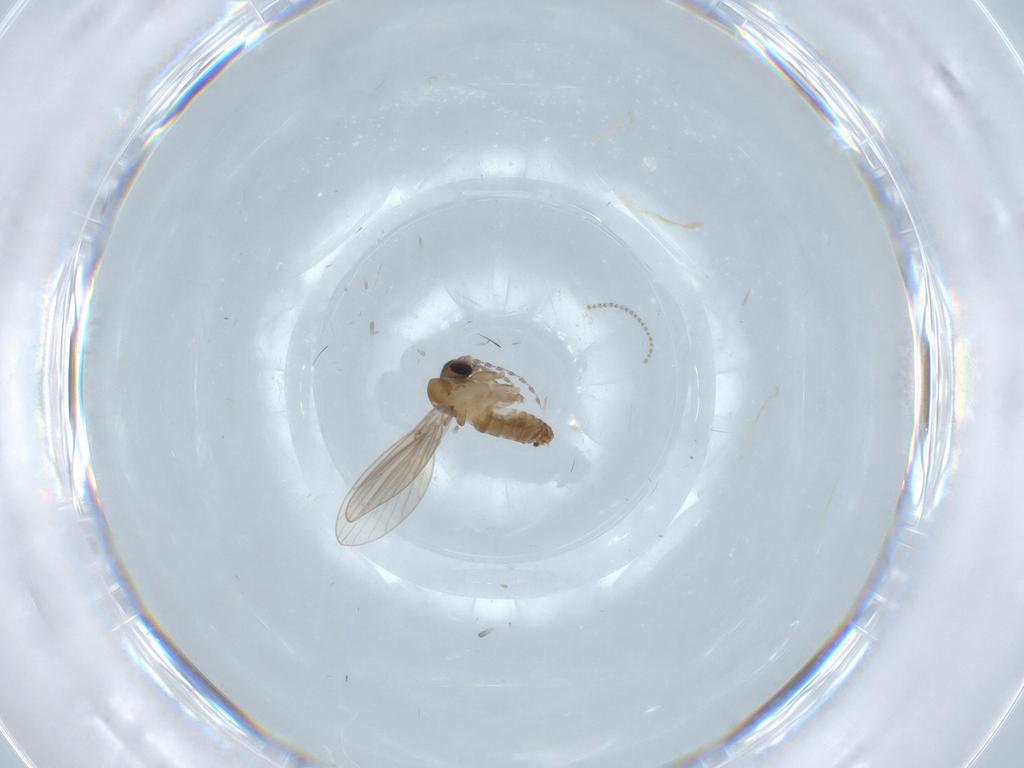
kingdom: Animalia
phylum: Arthropoda
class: Insecta
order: Diptera
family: Cecidomyiidae
